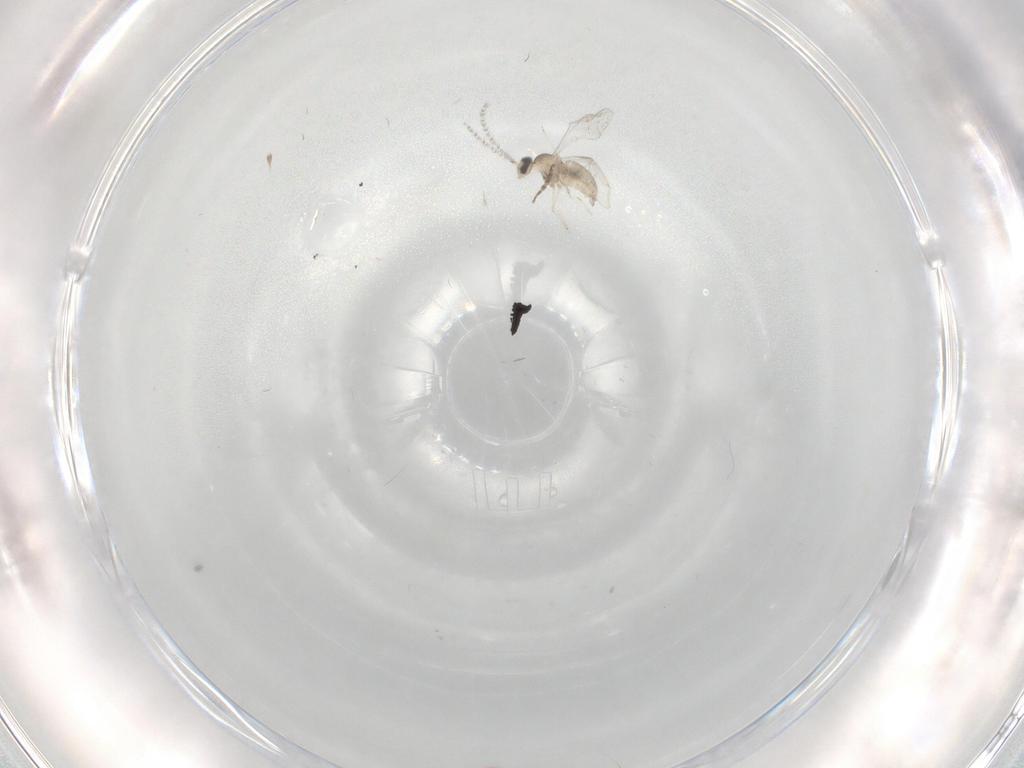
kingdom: Animalia
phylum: Arthropoda
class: Insecta
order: Diptera
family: Cecidomyiidae
